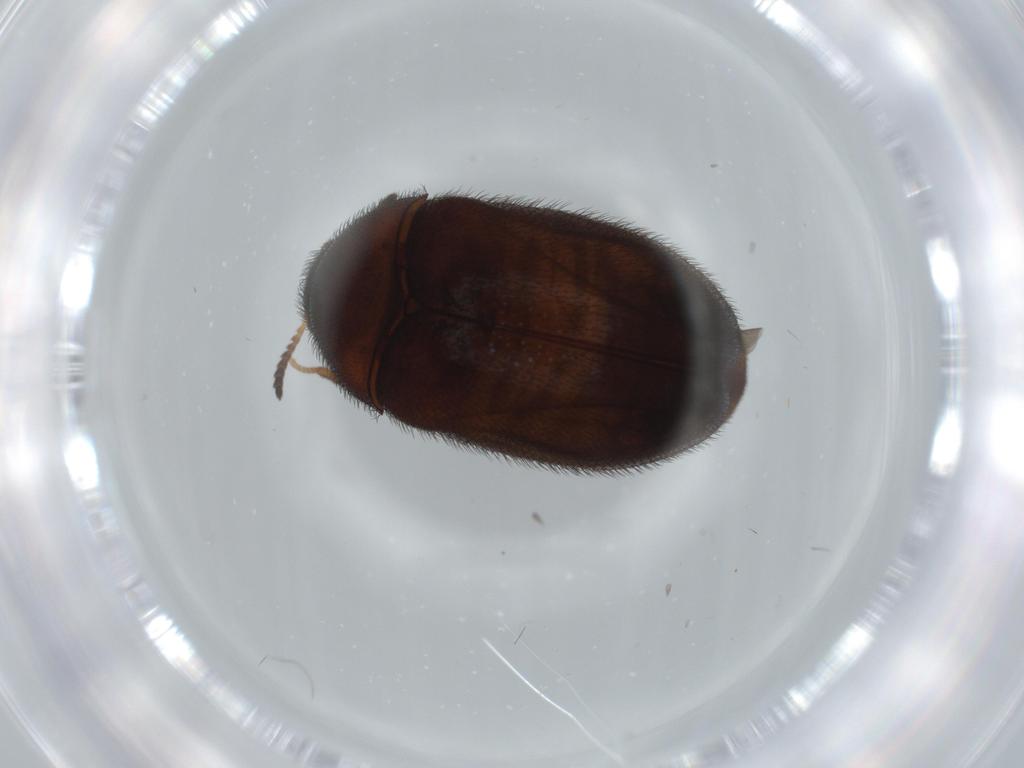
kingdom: Animalia
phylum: Arthropoda
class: Insecta
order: Coleoptera
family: Dermestidae
